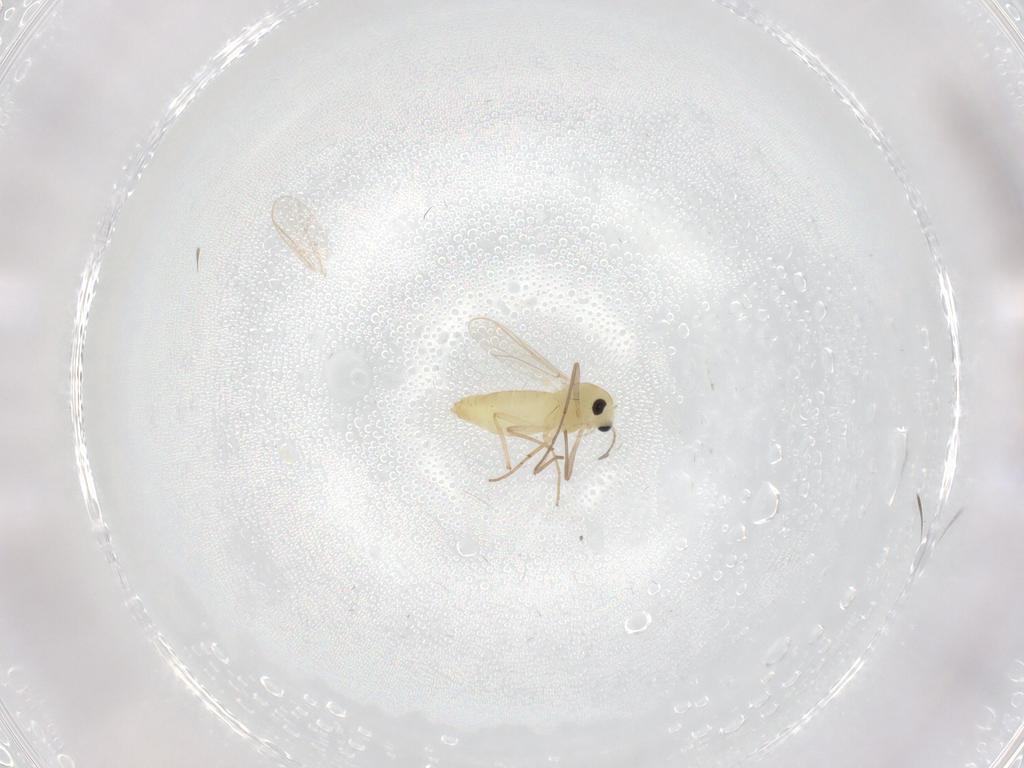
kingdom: Animalia
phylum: Arthropoda
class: Insecta
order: Diptera
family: Chironomidae
